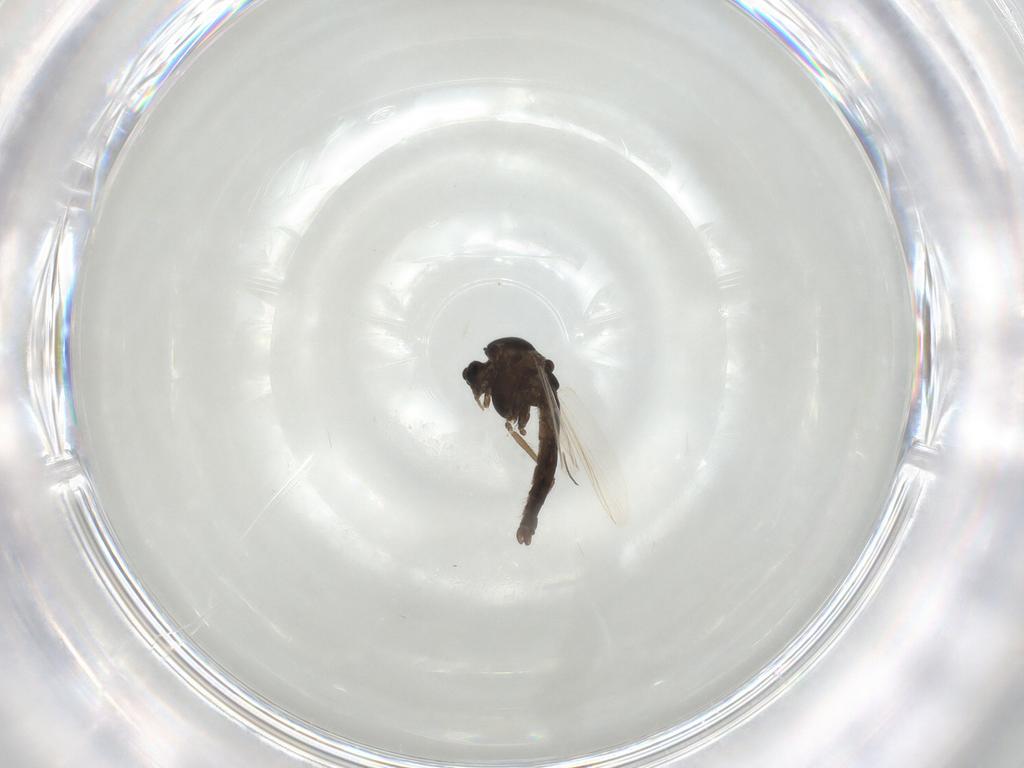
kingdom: Animalia
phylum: Arthropoda
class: Insecta
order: Diptera
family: Chironomidae
